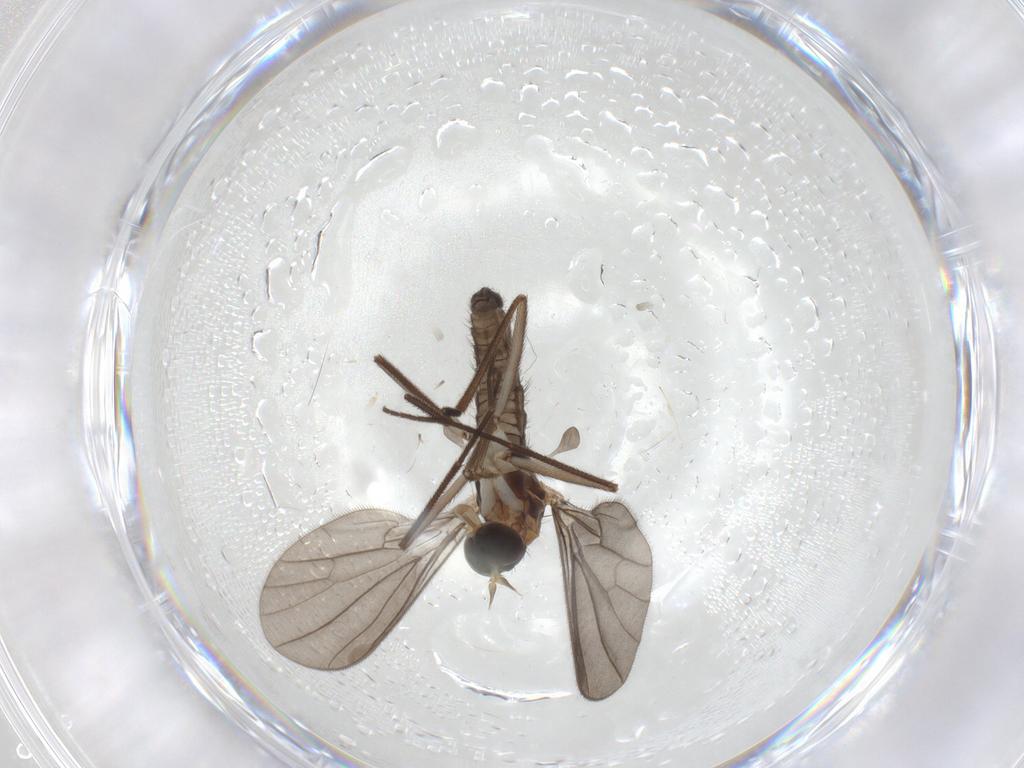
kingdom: Animalia
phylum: Arthropoda
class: Insecta
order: Diptera
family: Empididae
